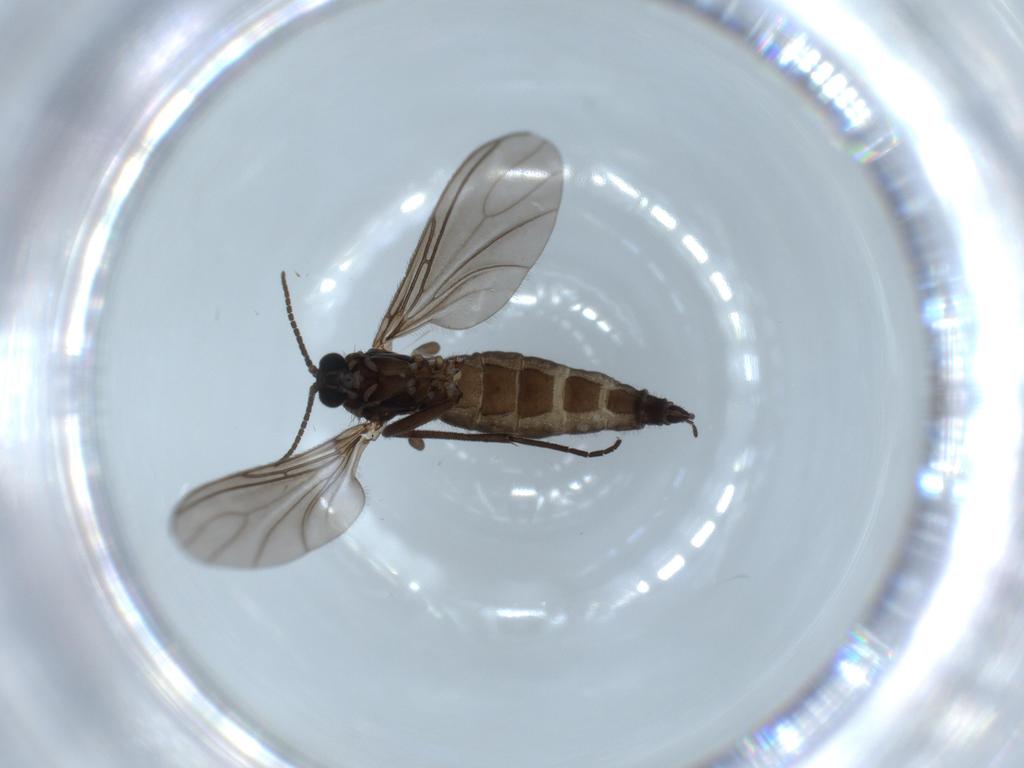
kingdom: Animalia
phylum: Arthropoda
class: Insecta
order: Diptera
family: Sciaridae
